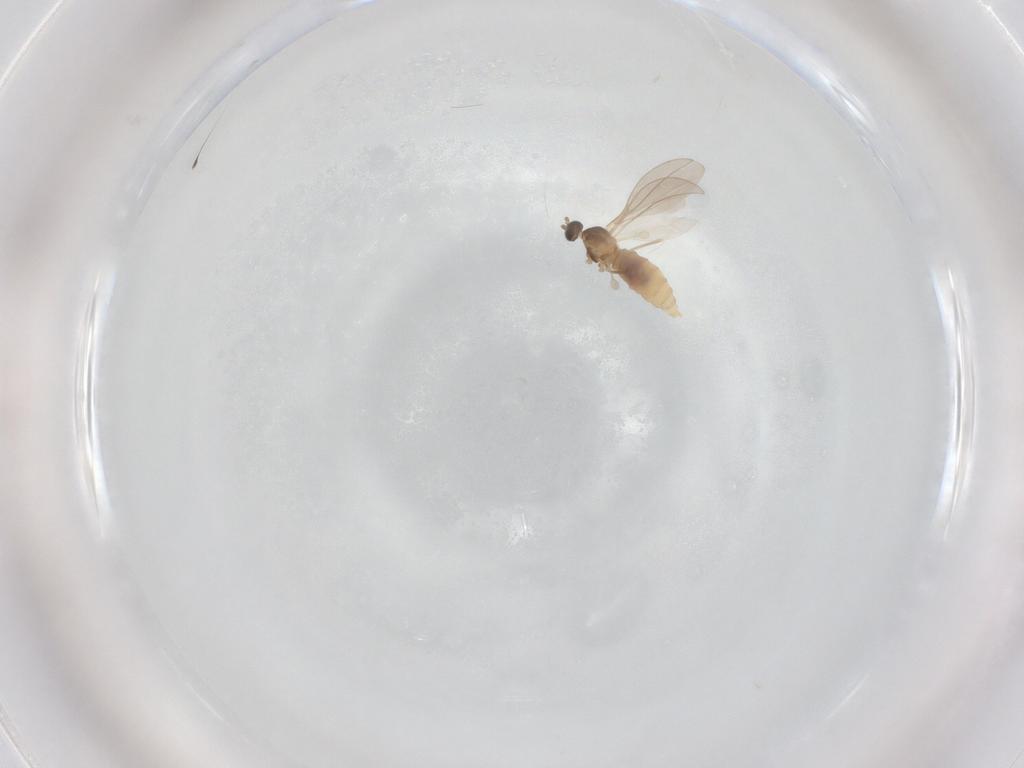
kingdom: Animalia
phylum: Arthropoda
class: Insecta
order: Diptera
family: Cecidomyiidae
